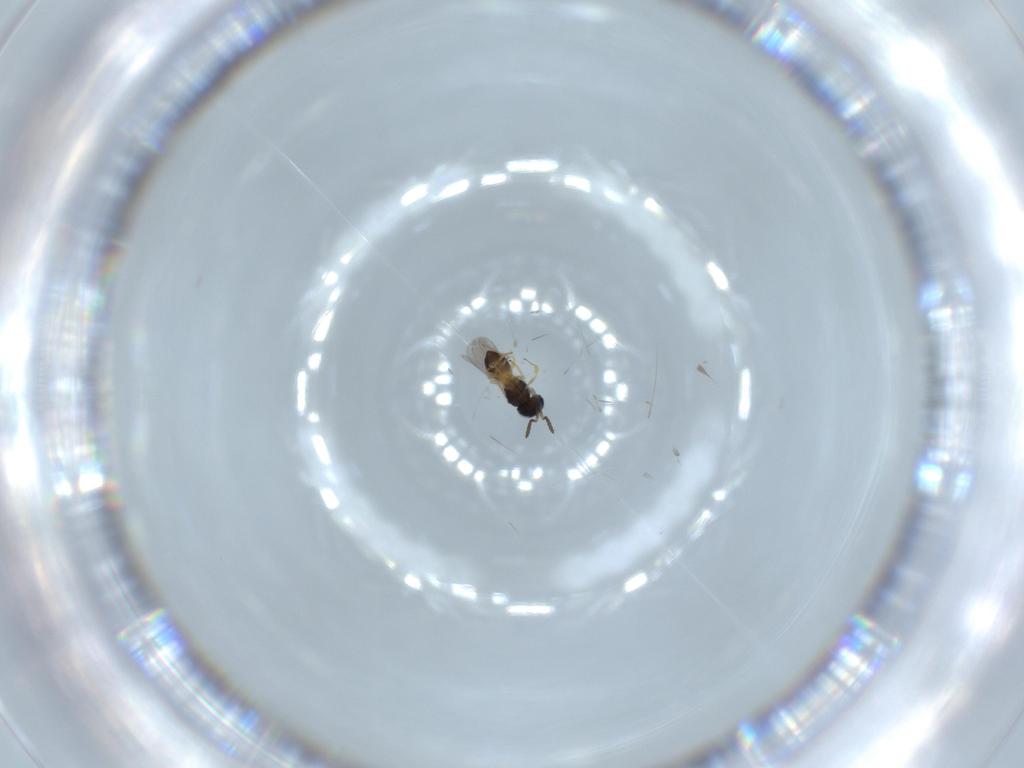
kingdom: Animalia
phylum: Arthropoda
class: Insecta
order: Hymenoptera
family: Scelionidae
